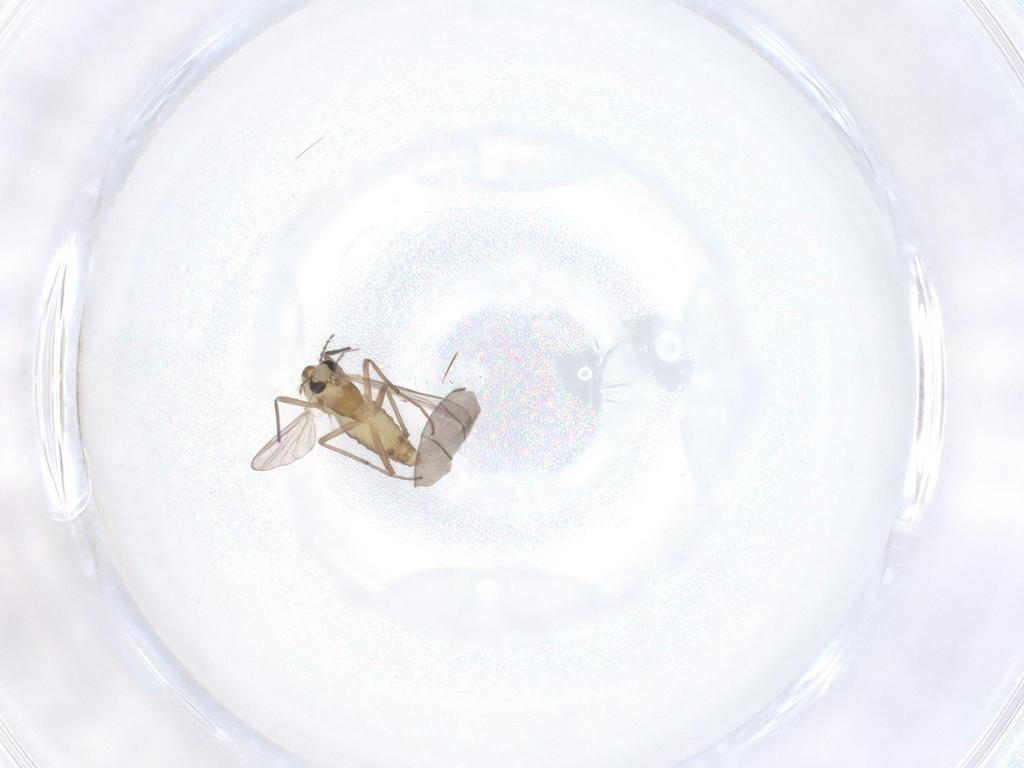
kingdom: Animalia
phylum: Arthropoda
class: Insecta
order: Diptera
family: Chironomidae
